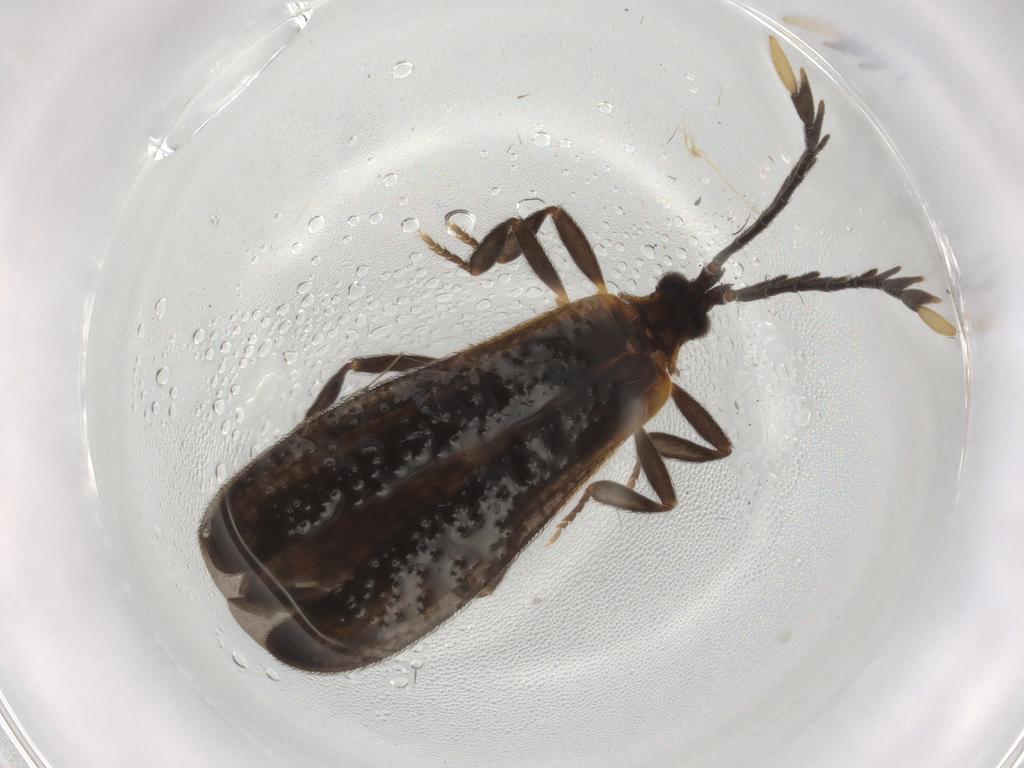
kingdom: Animalia
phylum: Arthropoda
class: Insecta
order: Coleoptera
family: Lycidae
